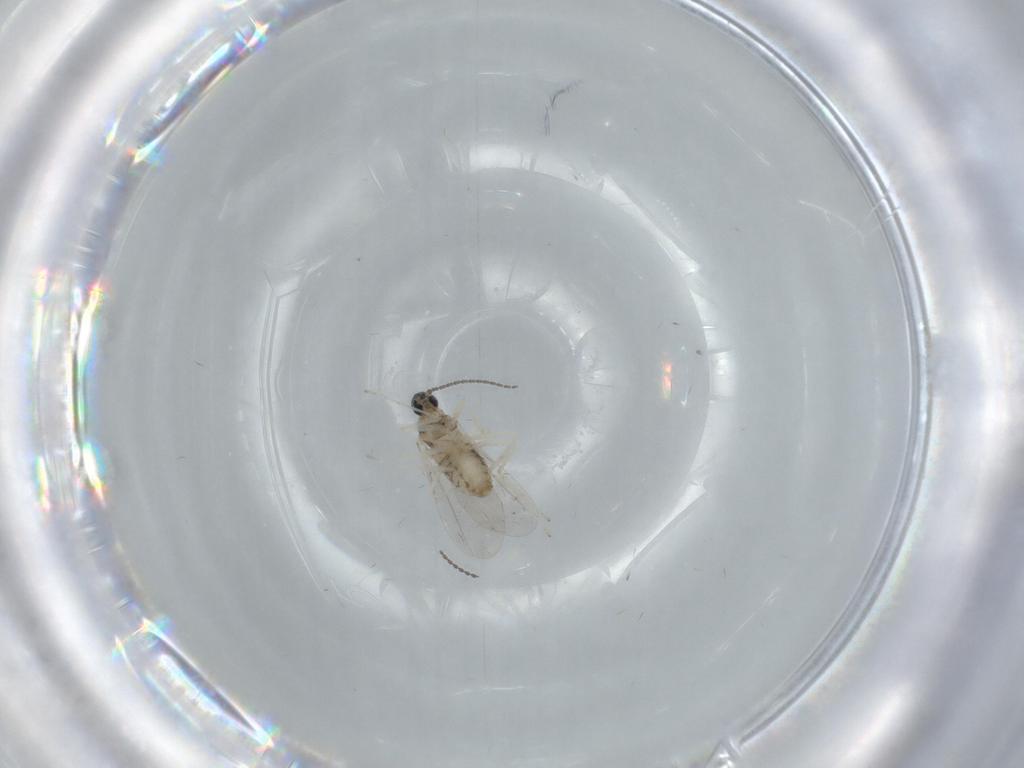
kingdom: Animalia
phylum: Arthropoda
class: Insecta
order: Diptera
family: Cecidomyiidae
